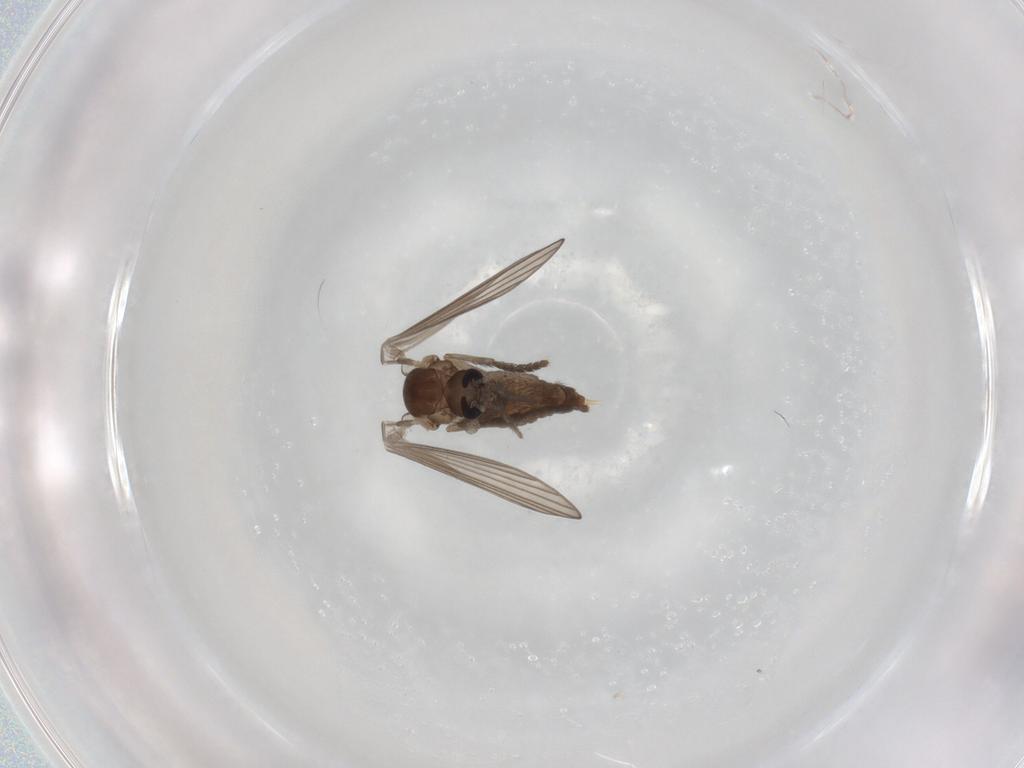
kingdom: Animalia
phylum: Arthropoda
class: Insecta
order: Diptera
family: Psychodidae
